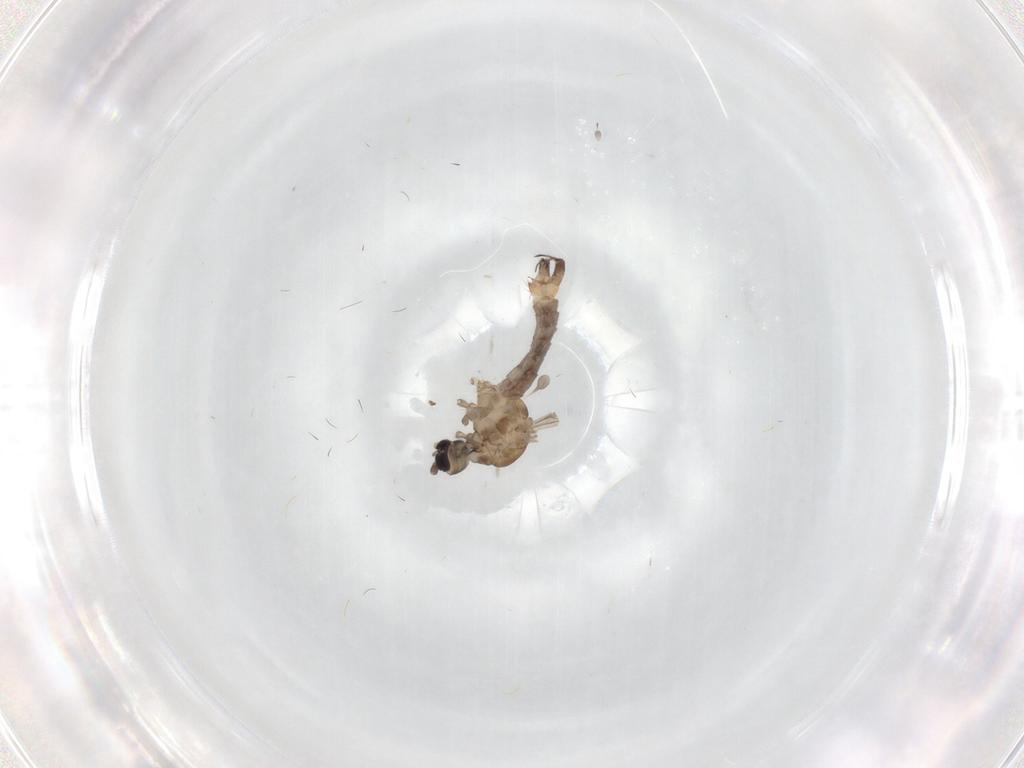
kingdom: Animalia
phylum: Arthropoda
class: Insecta
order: Diptera
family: Limoniidae
